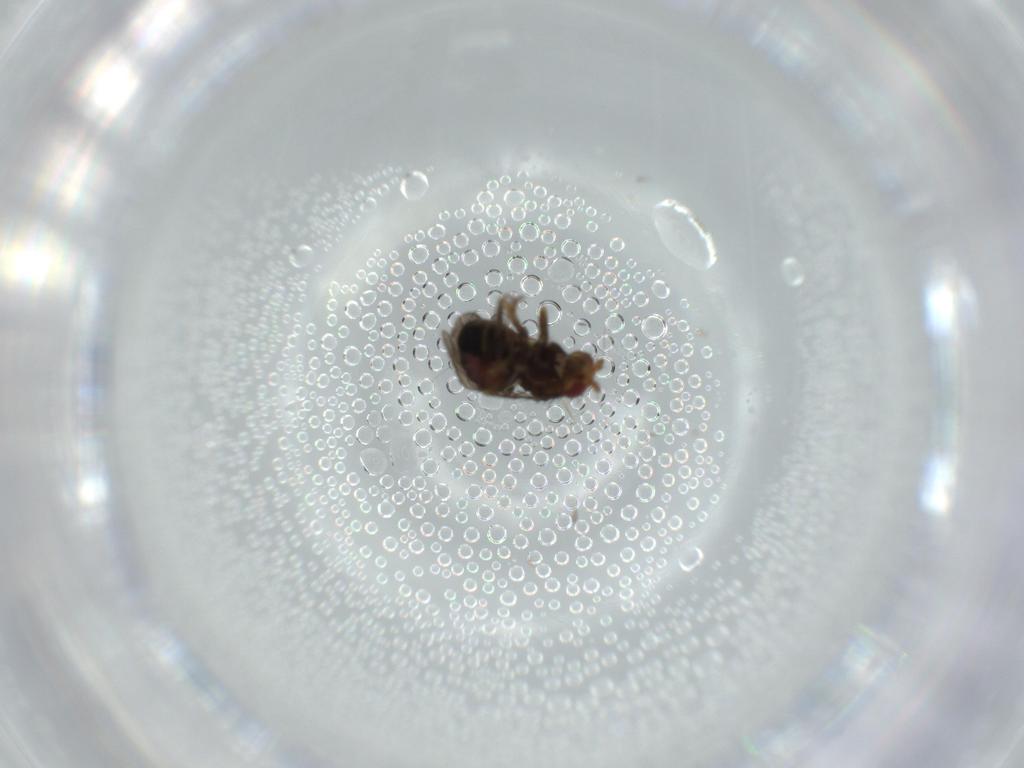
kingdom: Animalia
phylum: Arthropoda
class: Insecta
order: Diptera
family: Sphaeroceridae
